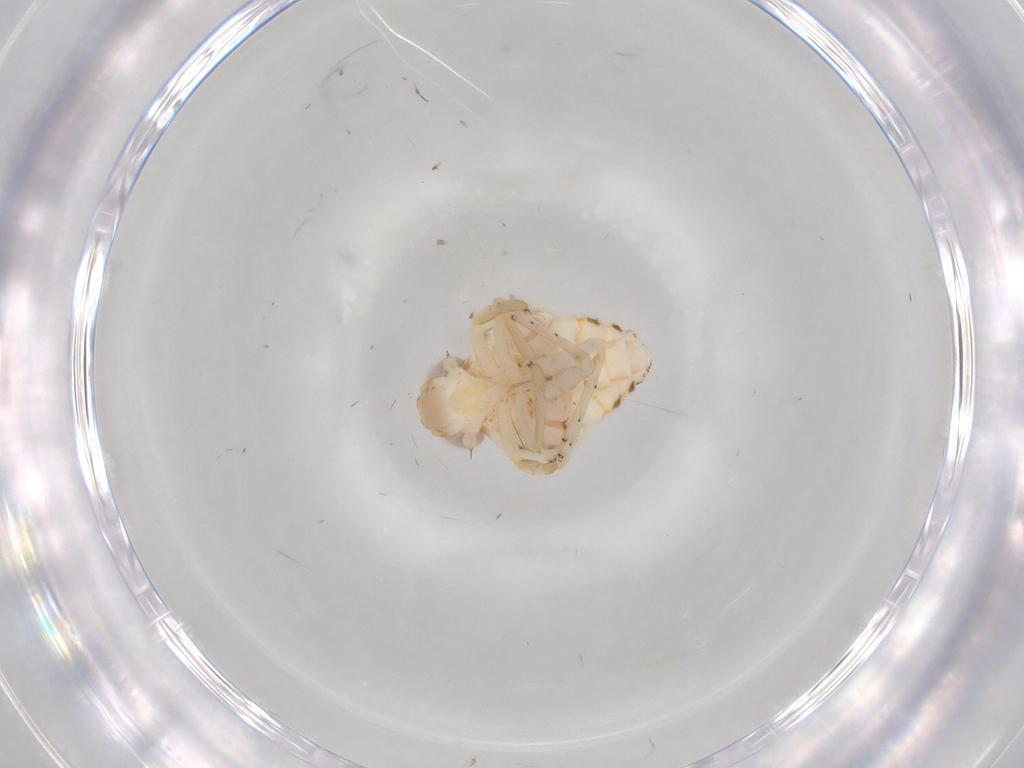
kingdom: Animalia
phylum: Arthropoda
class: Insecta
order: Hemiptera
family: Nogodinidae
